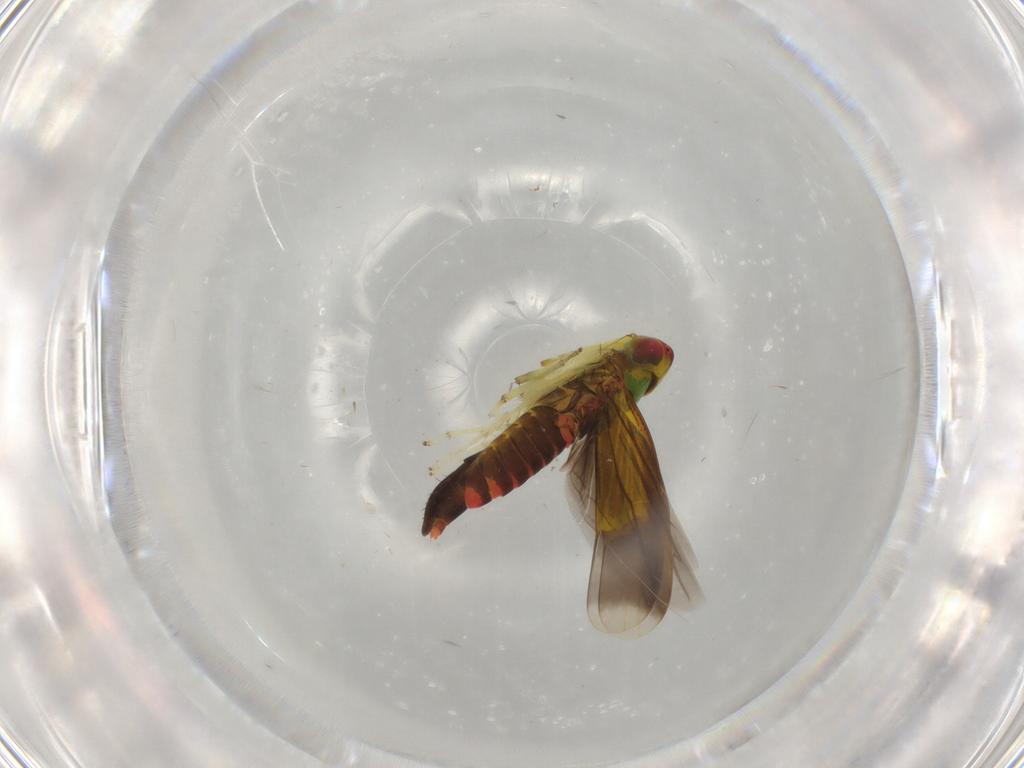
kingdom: Animalia
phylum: Arthropoda
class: Insecta
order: Hemiptera
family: Cicadellidae
